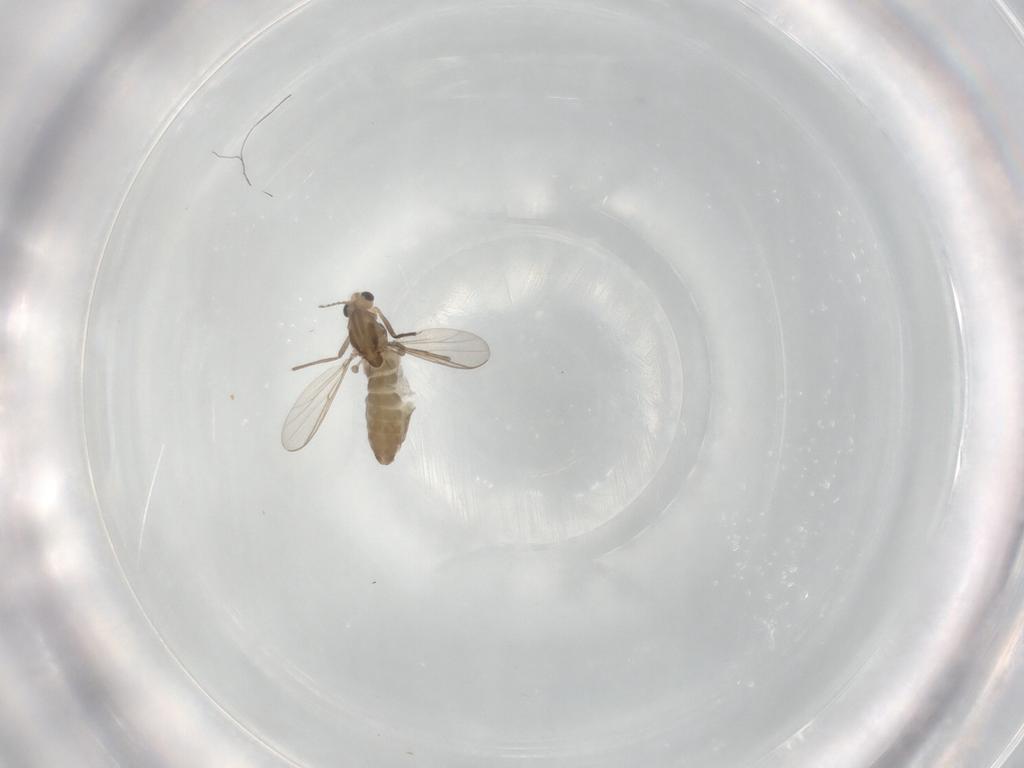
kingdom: Animalia
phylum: Arthropoda
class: Insecta
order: Diptera
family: Chironomidae
